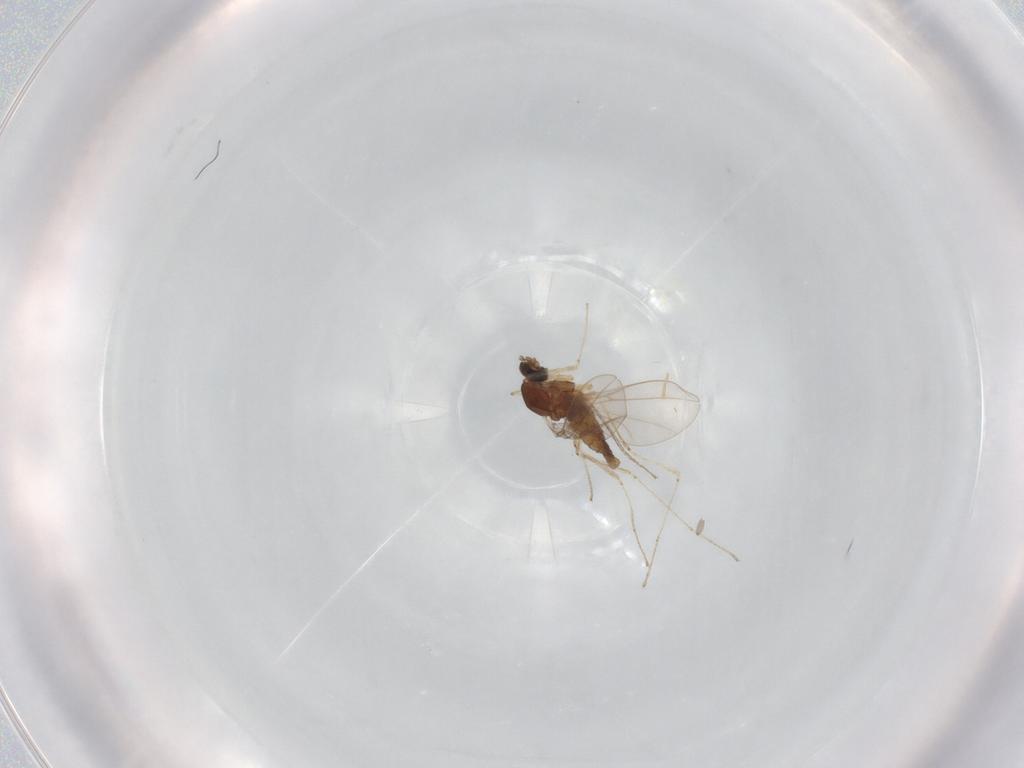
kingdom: Animalia
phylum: Arthropoda
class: Insecta
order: Diptera
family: Cecidomyiidae
